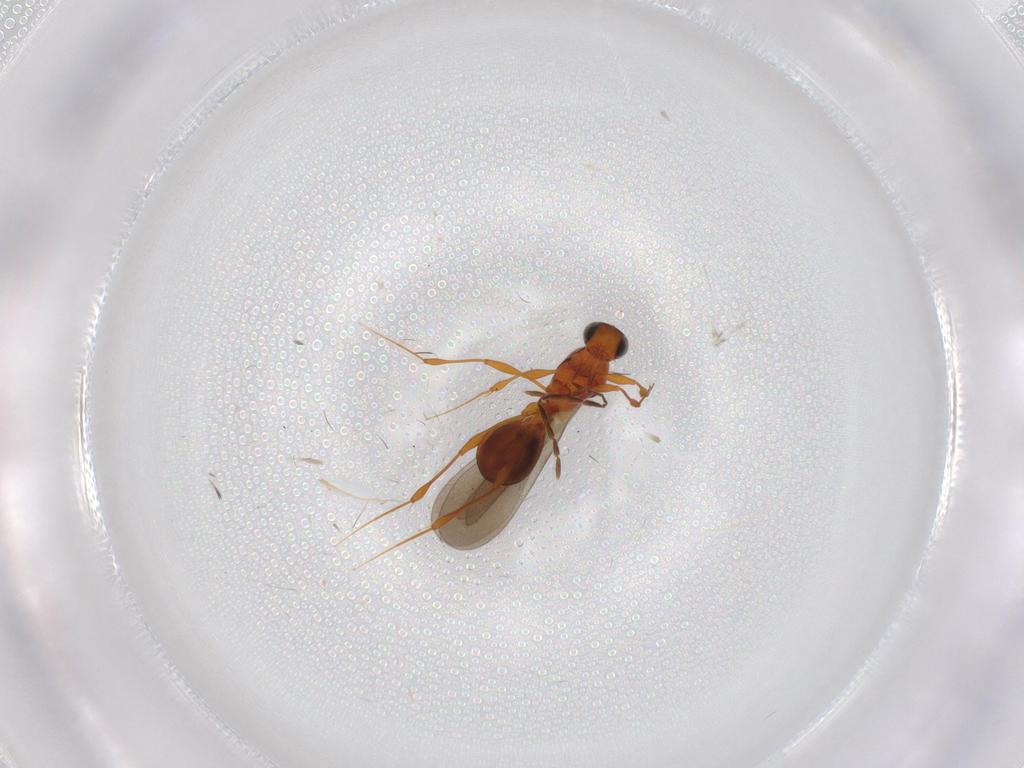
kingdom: Animalia
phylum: Arthropoda
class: Insecta
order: Hymenoptera
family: Platygastridae
